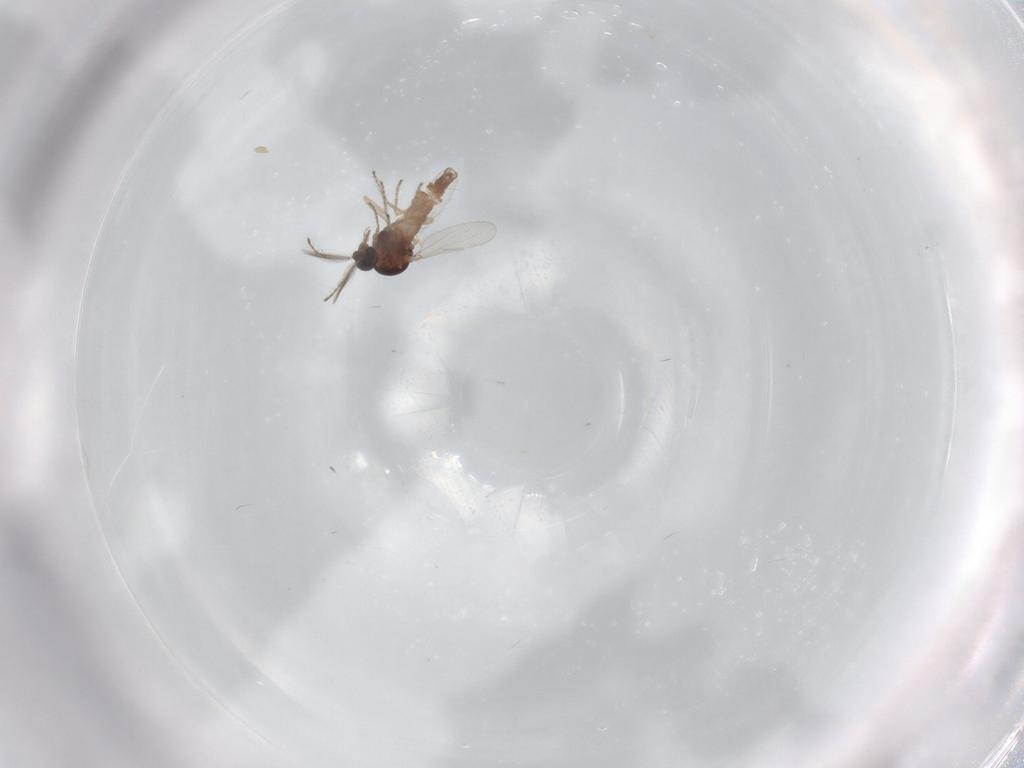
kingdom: Animalia
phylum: Arthropoda
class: Insecta
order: Diptera
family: Ceratopogonidae
